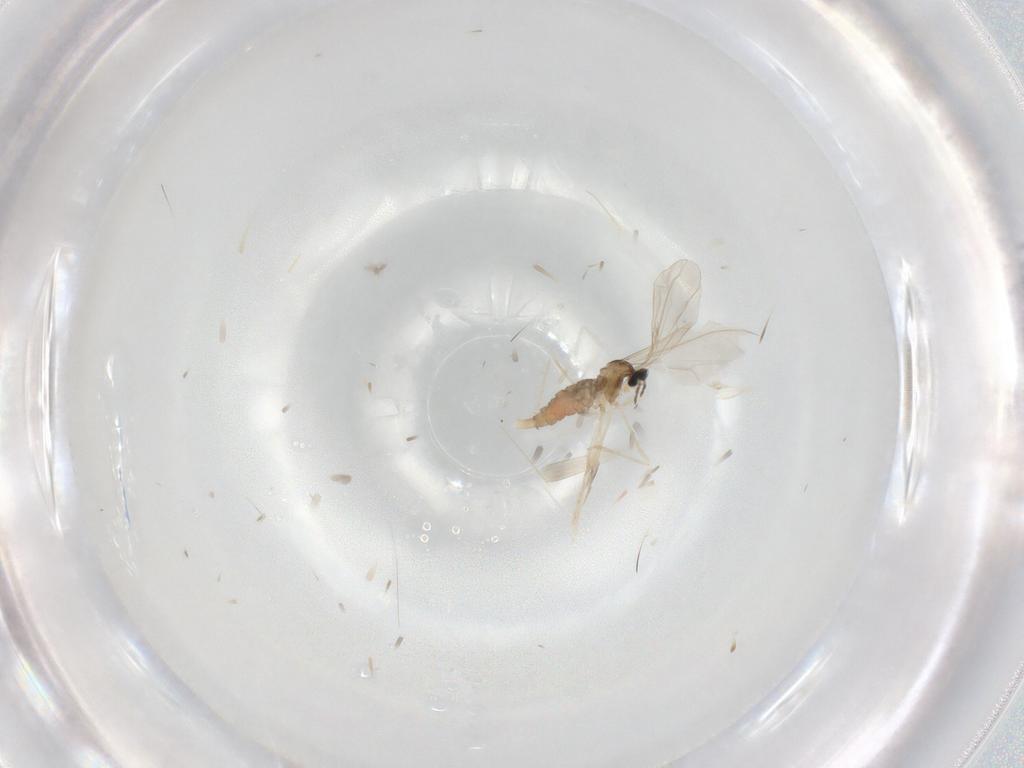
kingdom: Animalia
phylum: Arthropoda
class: Insecta
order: Diptera
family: Cecidomyiidae
